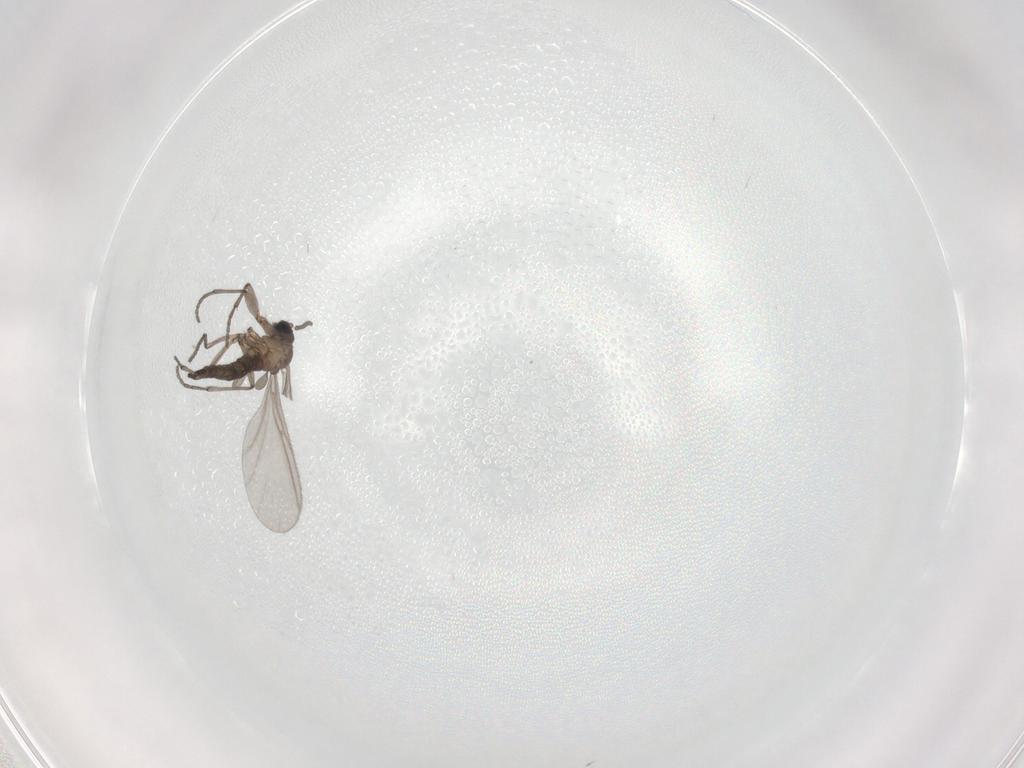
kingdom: Animalia
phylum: Arthropoda
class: Insecta
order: Diptera
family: Sciaridae
